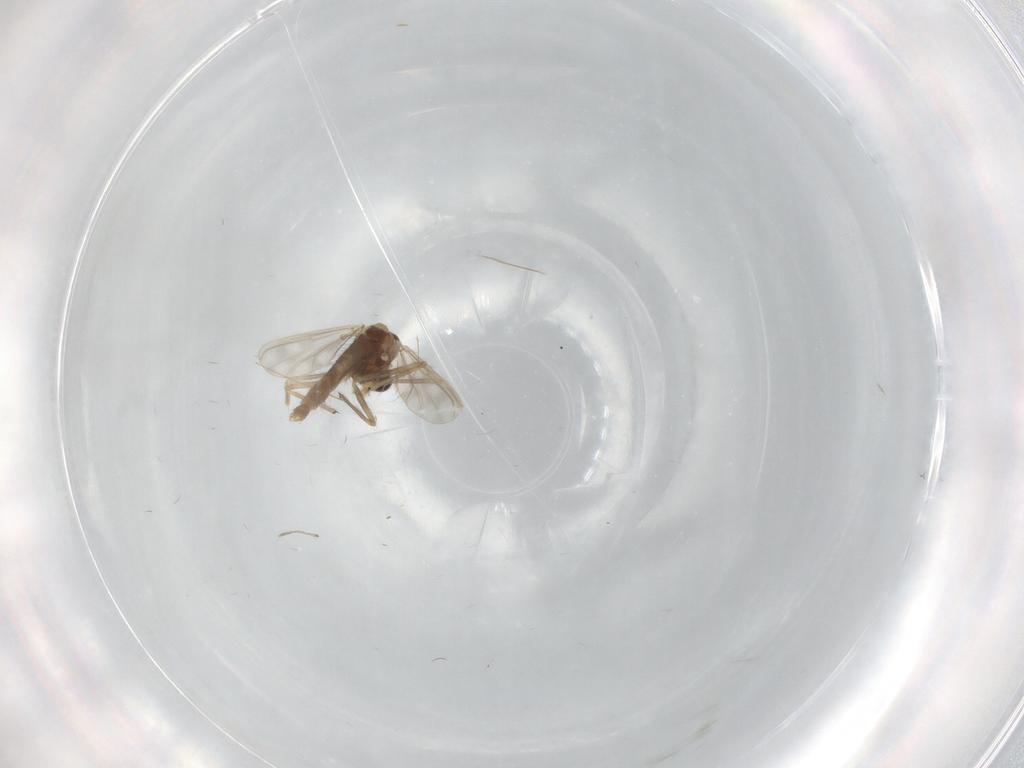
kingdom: Animalia
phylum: Arthropoda
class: Insecta
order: Diptera
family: Chironomidae
